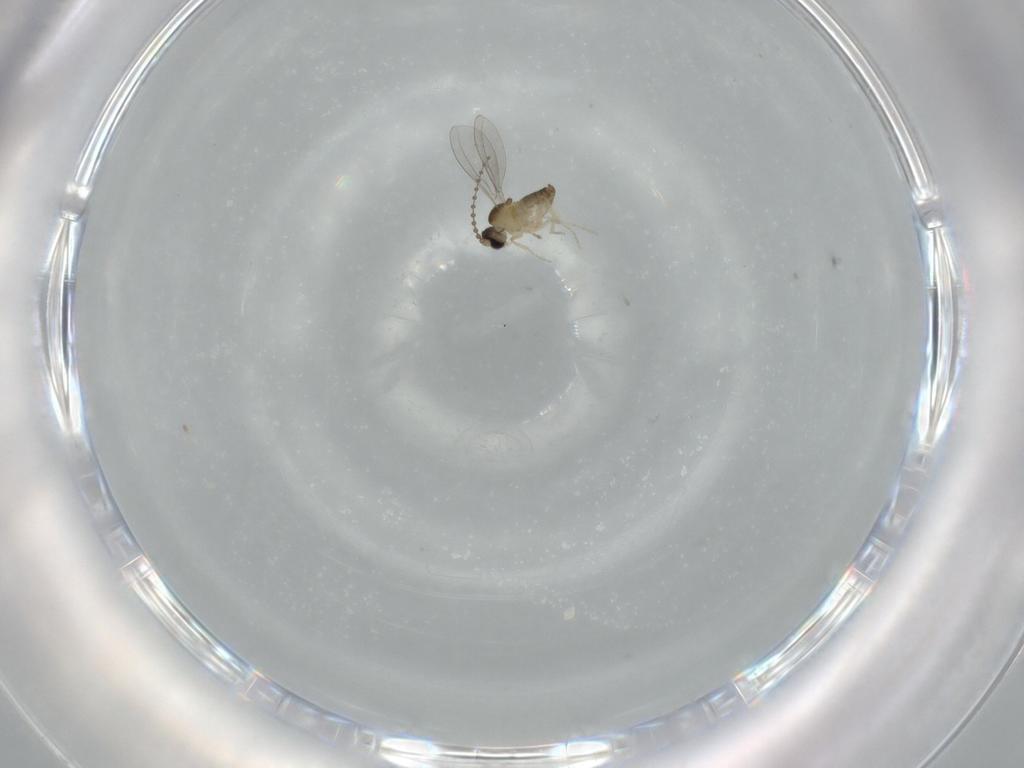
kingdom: Animalia
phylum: Arthropoda
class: Insecta
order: Diptera
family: Cecidomyiidae
